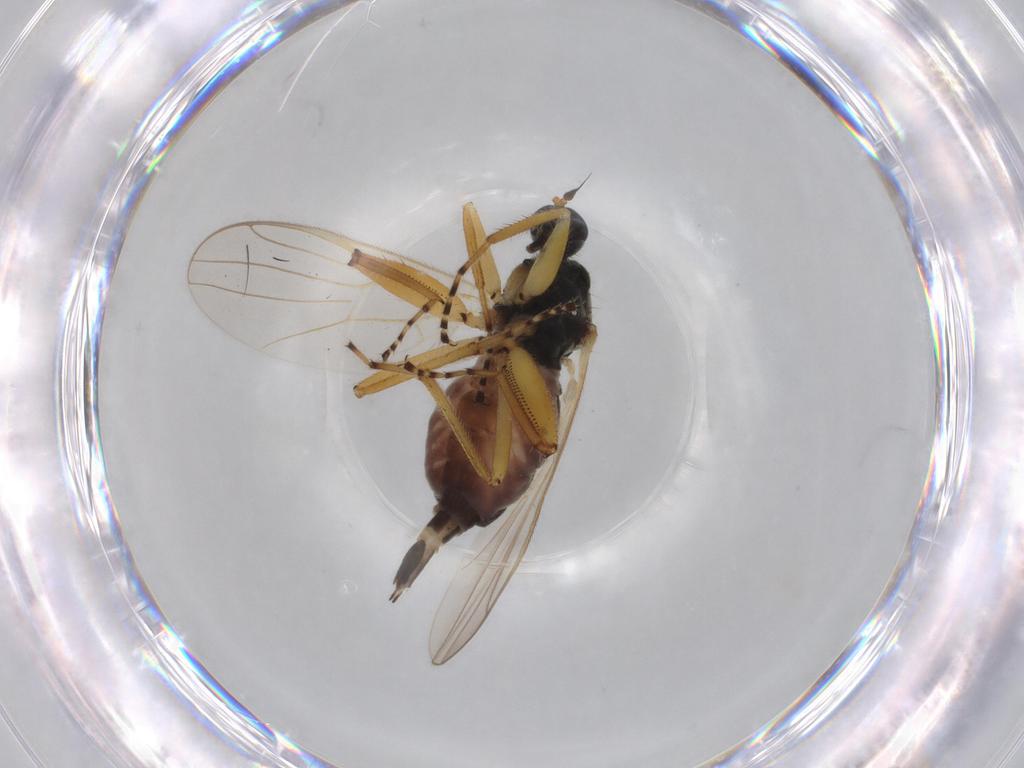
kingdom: Animalia
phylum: Arthropoda
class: Insecta
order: Diptera
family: Hybotidae
